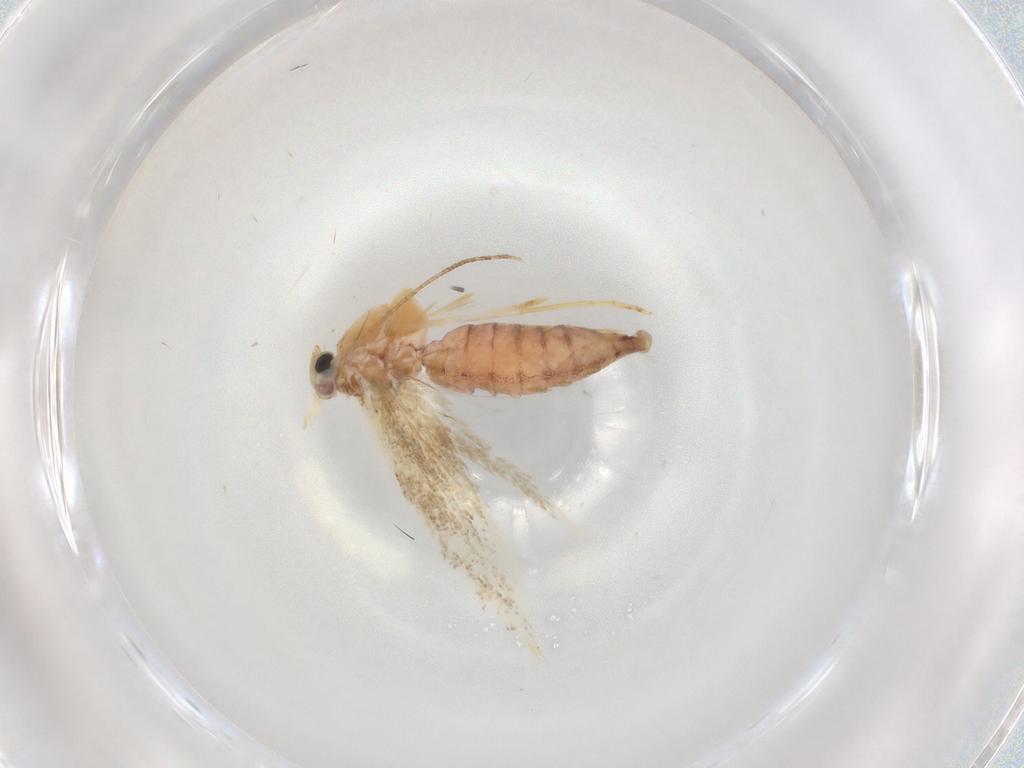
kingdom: Animalia
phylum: Arthropoda
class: Insecta
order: Lepidoptera
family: Bucculatricidae
